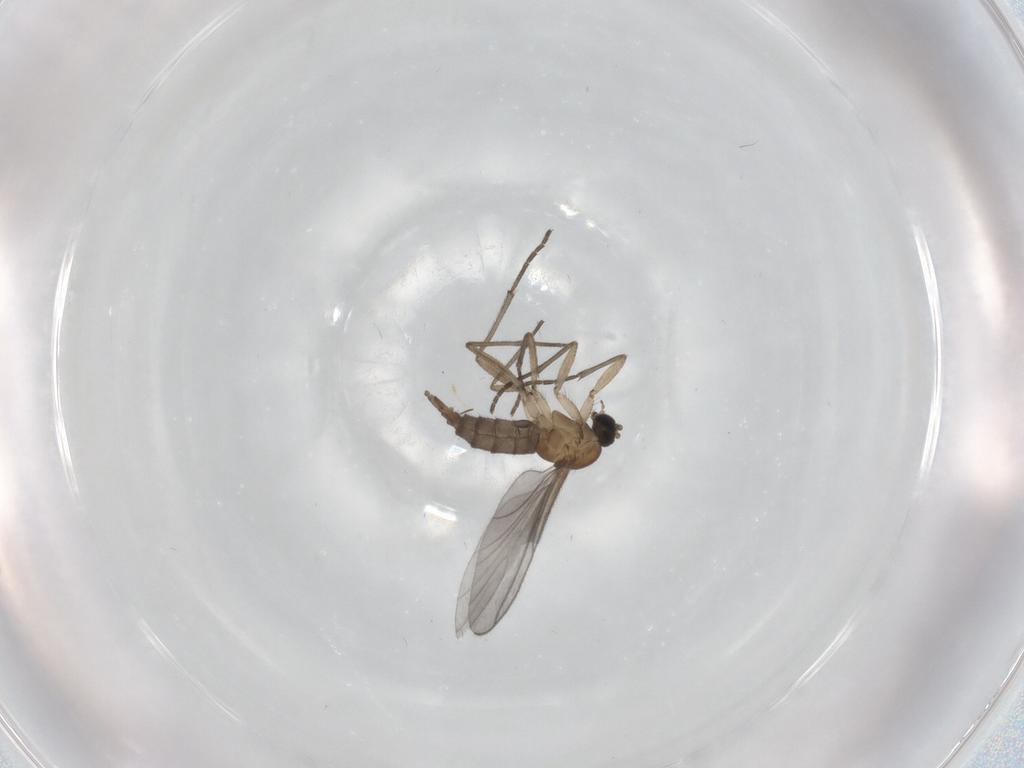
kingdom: Animalia
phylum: Arthropoda
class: Insecta
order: Diptera
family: Sciaridae
